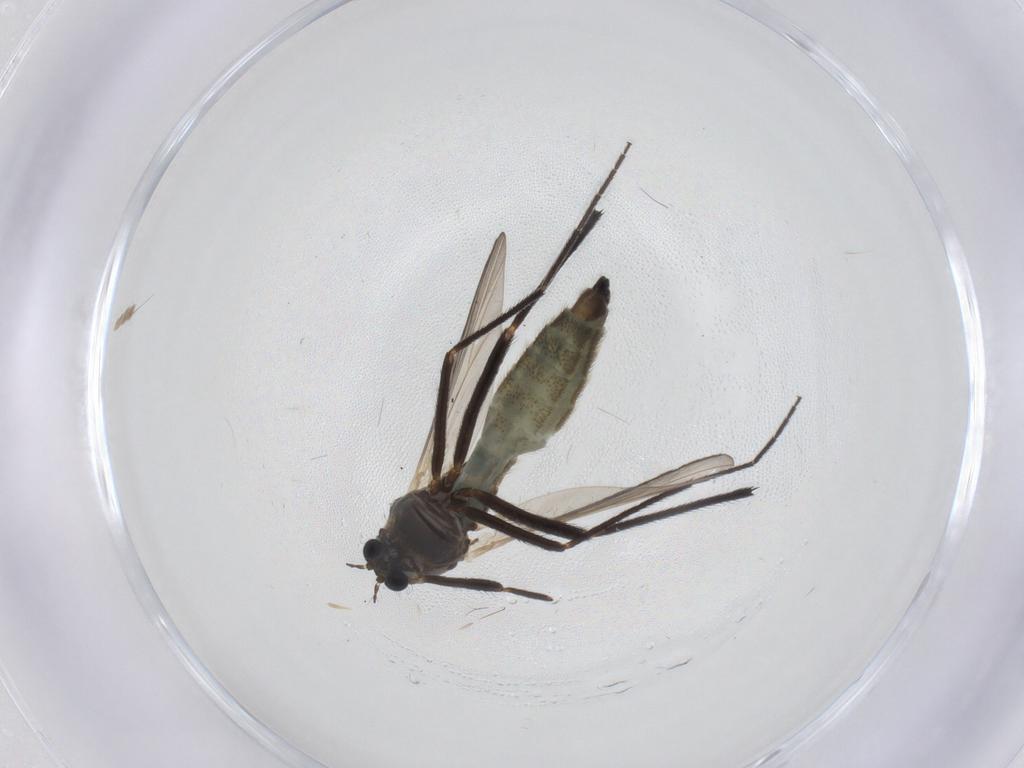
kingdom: Animalia
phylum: Arthropoda
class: Insecta
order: Diptera
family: Chironomidae
